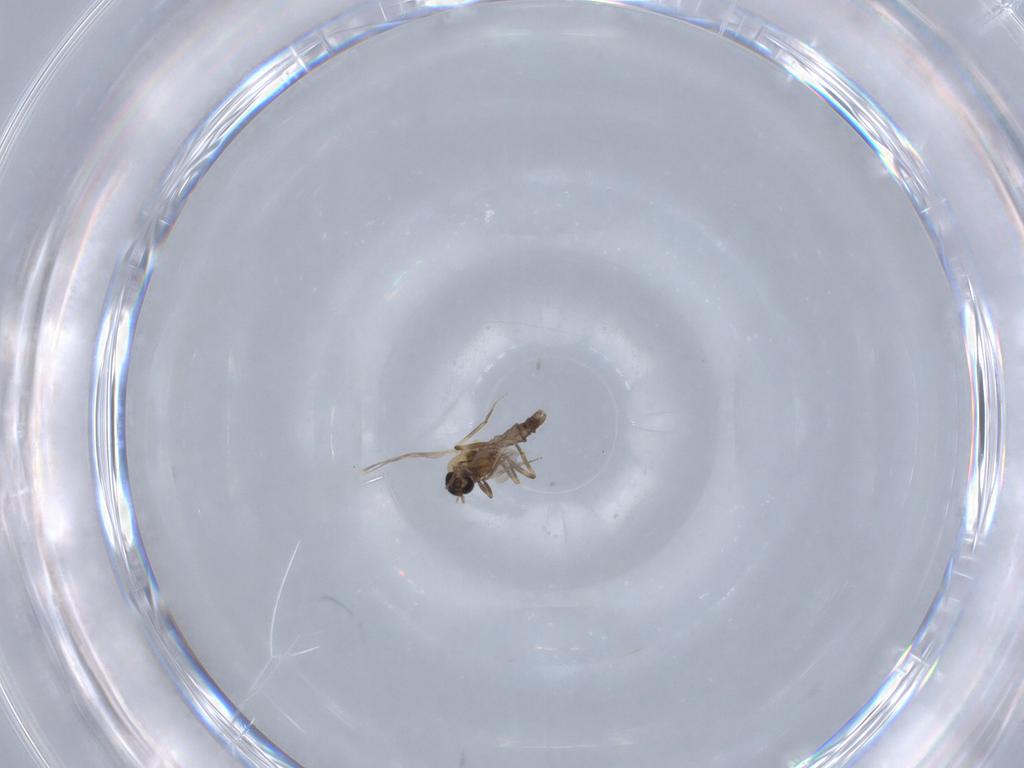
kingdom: Animalia
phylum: Arthropoda
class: Insecta
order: Diptera
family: Ceratopogonidae
